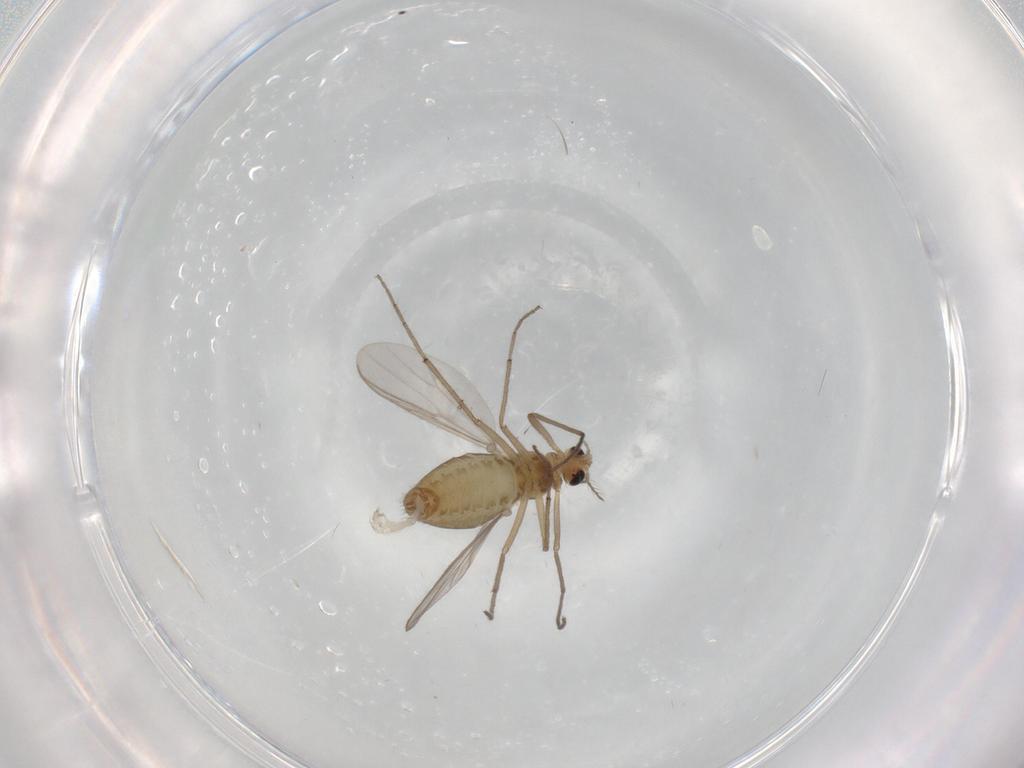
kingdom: Animalia
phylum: Arthropoda
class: Insecta
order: Diptera
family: Chironomidae
